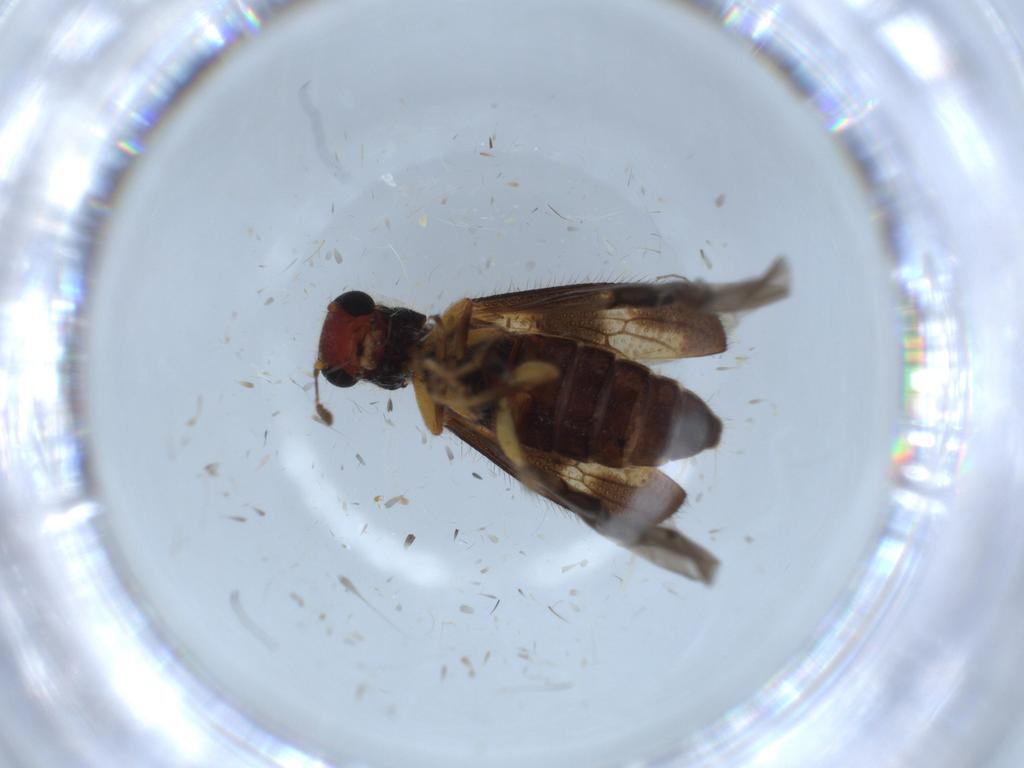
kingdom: Animalia
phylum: Arthropoda
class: Insecta
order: Coleoptera
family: Cleridae
